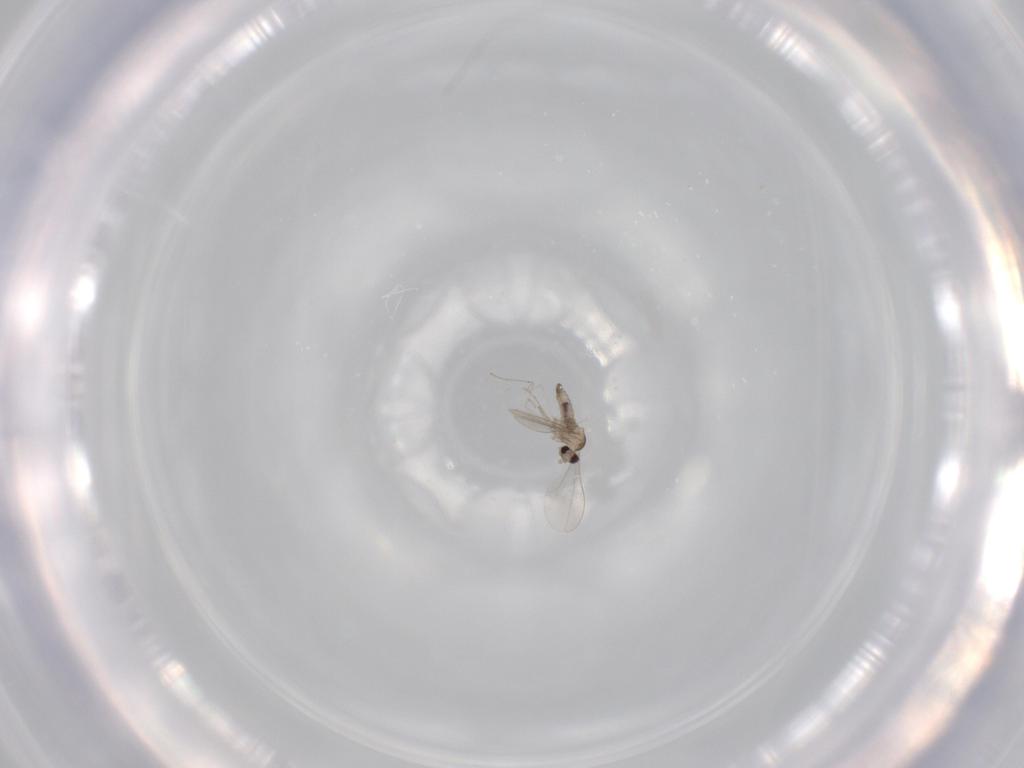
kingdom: Animalia
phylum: Arthropoda
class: Insecta
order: Diptera
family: Cecidomyiidae
